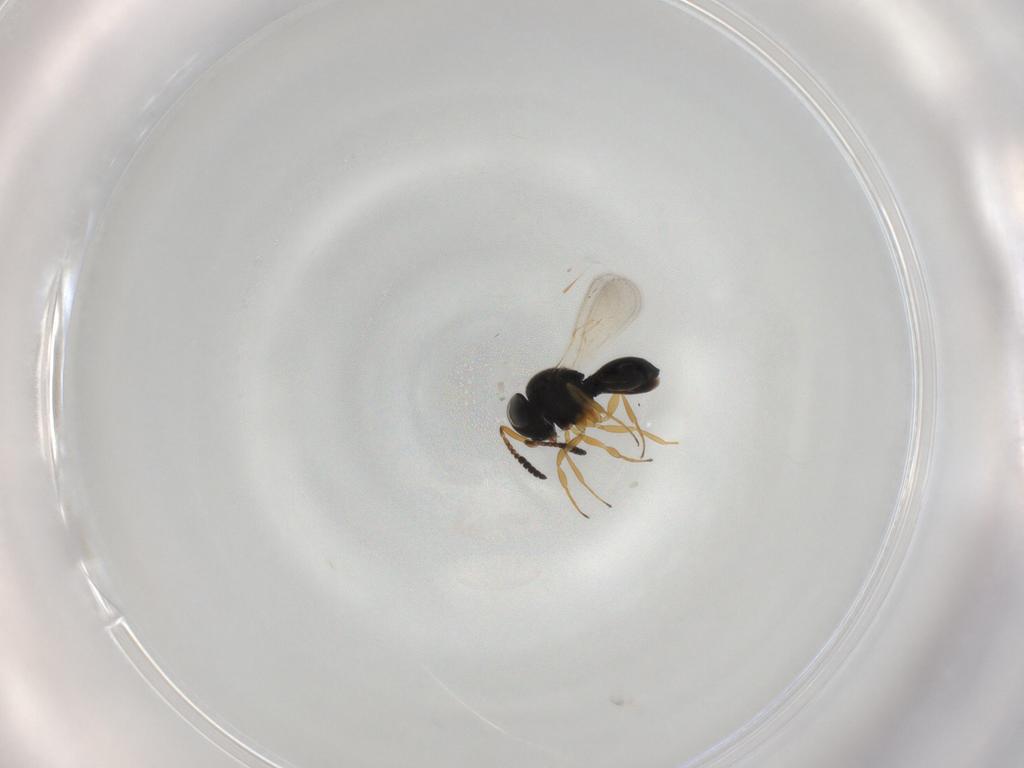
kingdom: Animalia
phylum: Arthropoda
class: Insecta
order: Hymenoptera
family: Scelionidae
